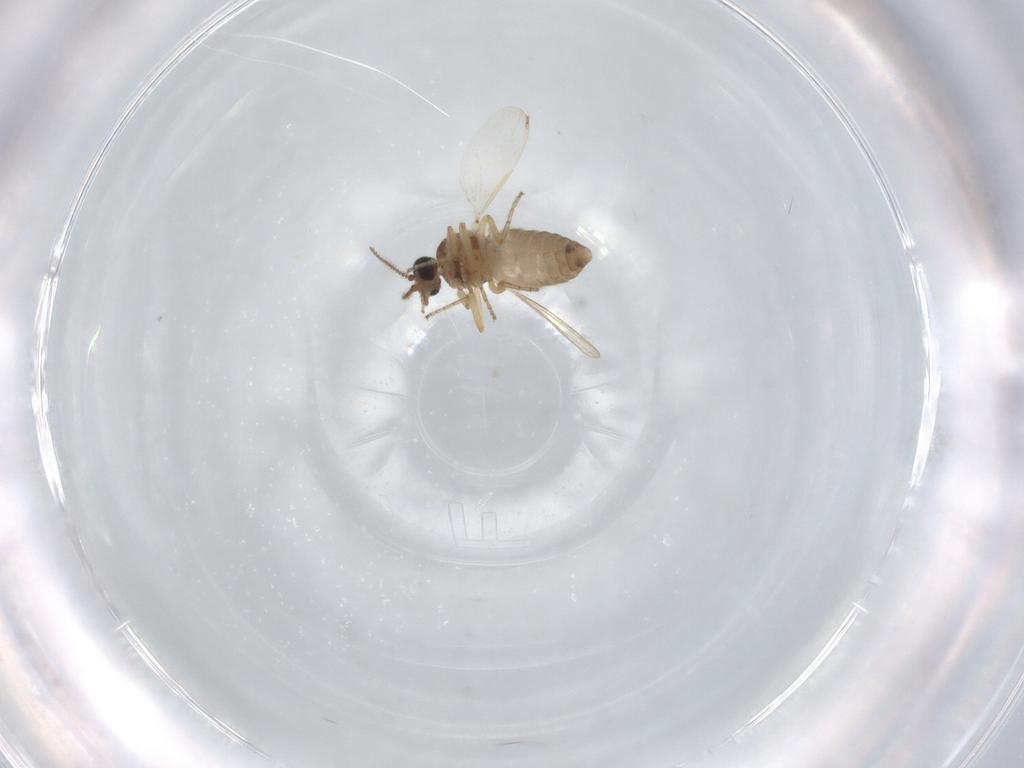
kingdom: Animalia
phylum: Arthropoda
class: Insecta
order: Diptera
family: Ceratopogonidae
